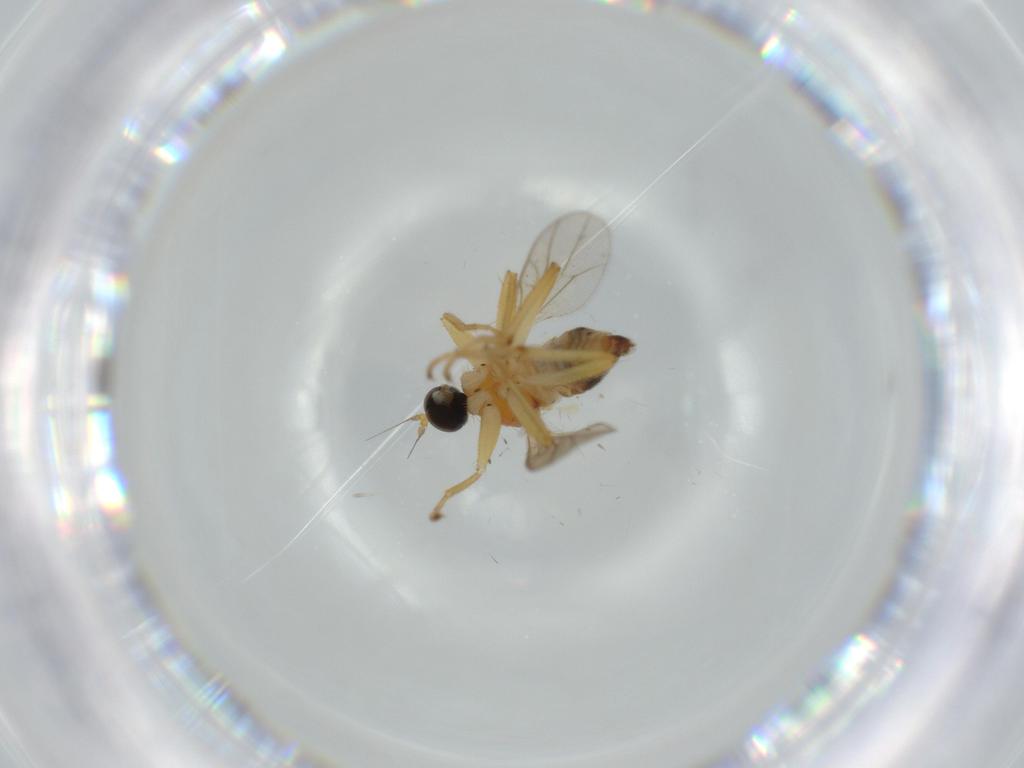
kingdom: Animalia
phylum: Arthropoda
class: Insecta
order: Diptera
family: Hybotidae
